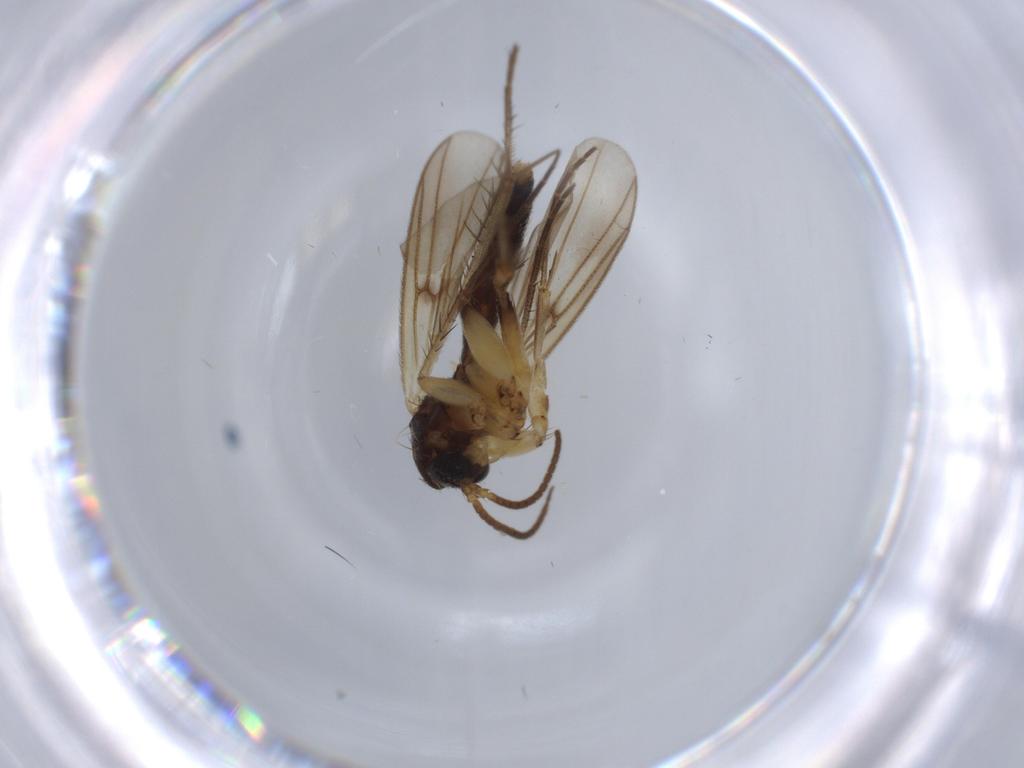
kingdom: Animalia
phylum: Arthropoda
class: Insecta
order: Diptera
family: Mycetophilidae
